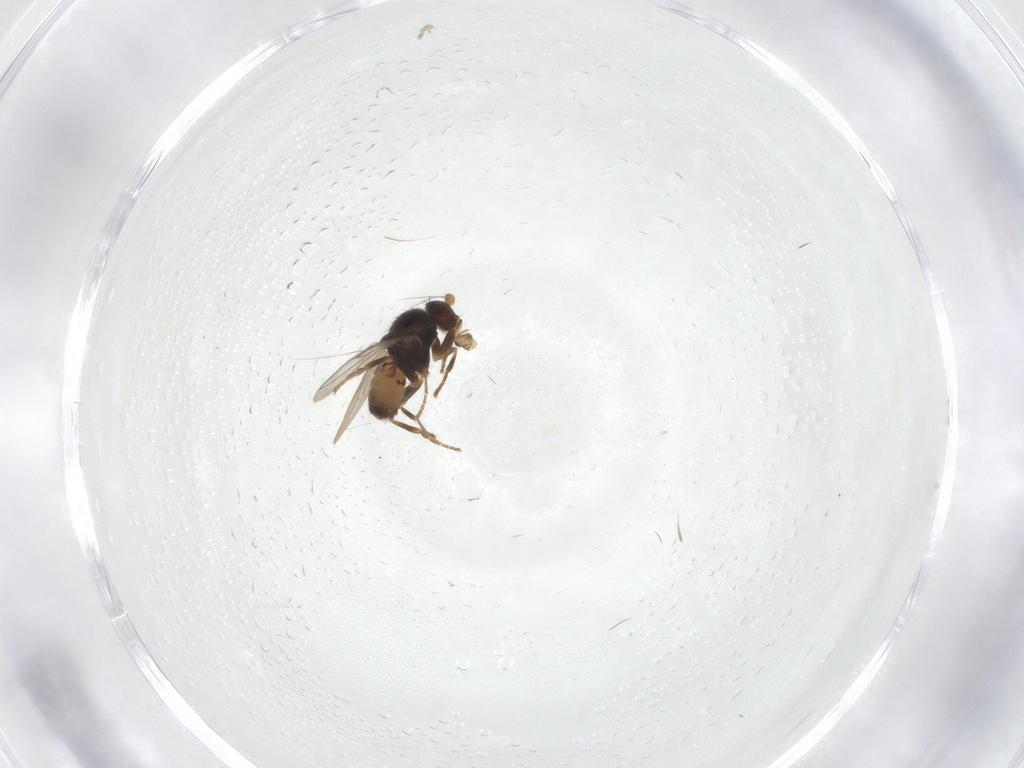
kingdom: Animalia
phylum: Arthropoda
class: Insecta
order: Diptera
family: Sphaeroceridae
